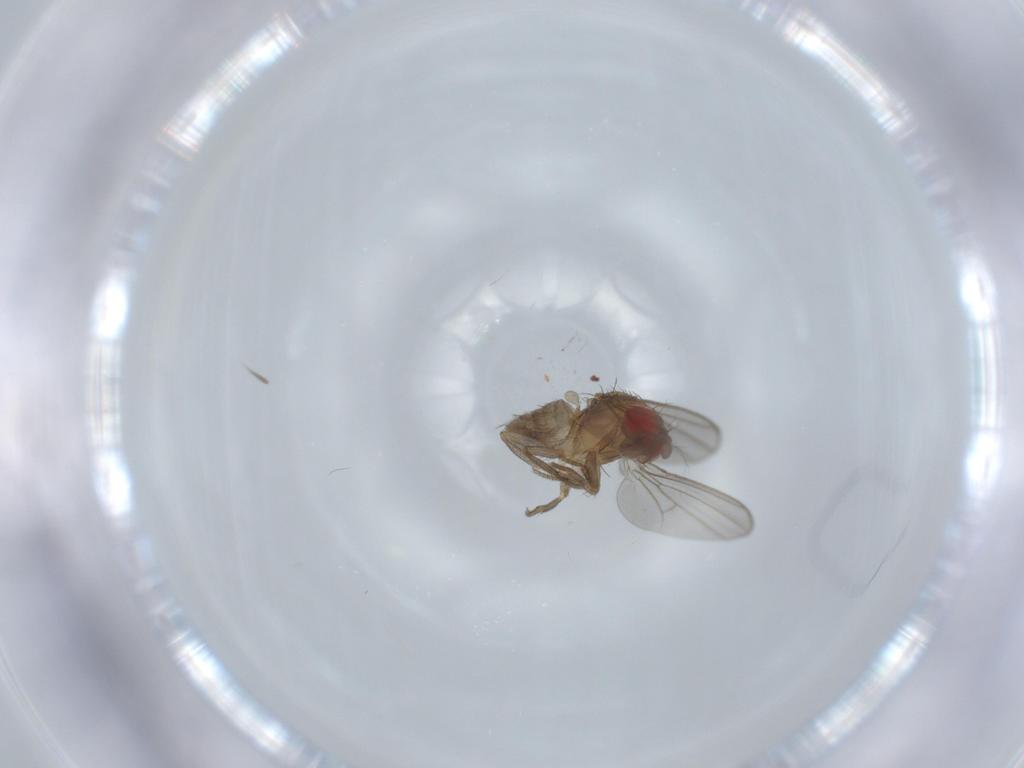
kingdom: Animalia
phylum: Arthropoda
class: Insecta
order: Diptera
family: Drosophilidae
